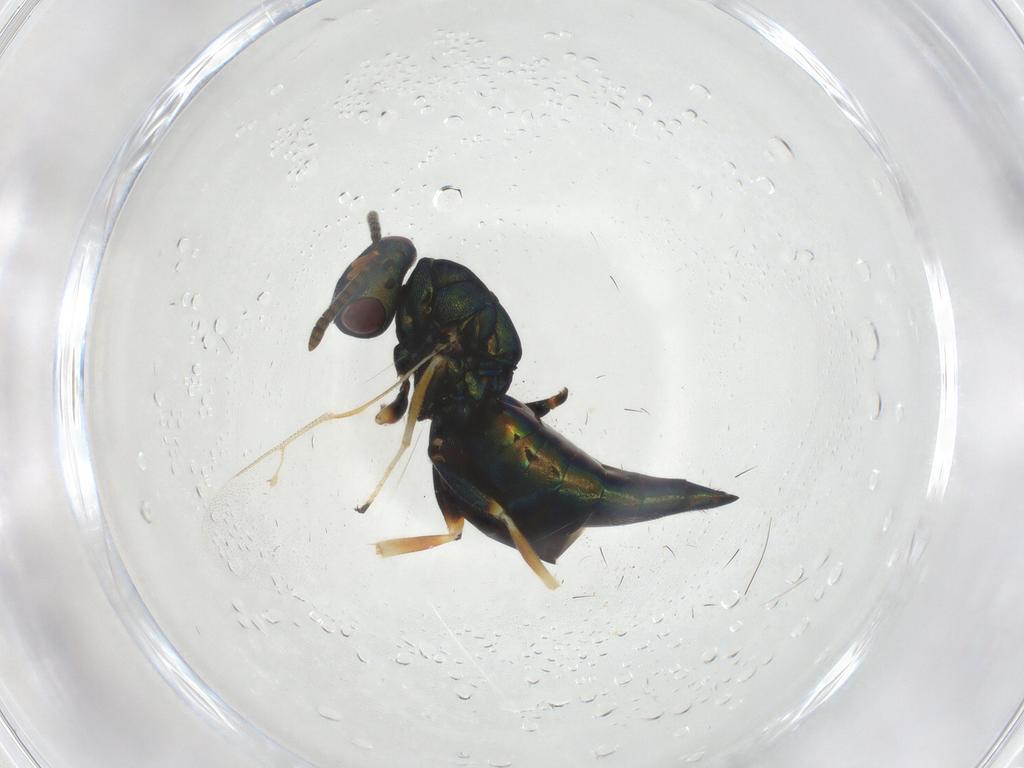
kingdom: Animalia
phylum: Arthropoda
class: Insecta
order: Hymenoptera
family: Pteromalidae
